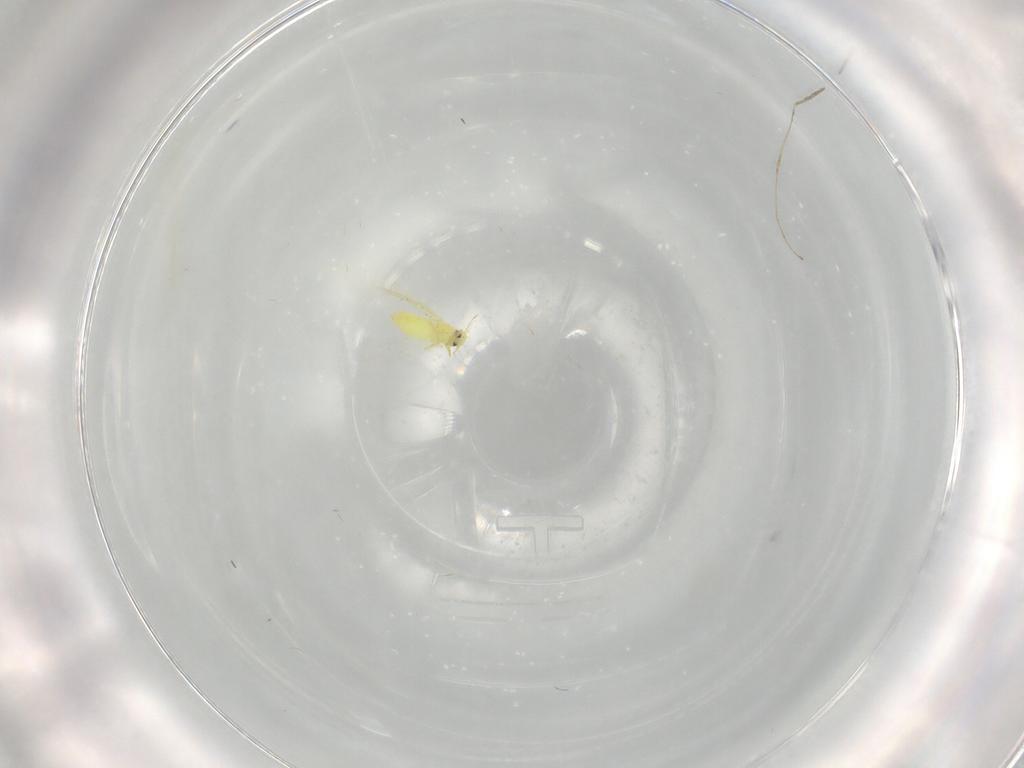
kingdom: Animalia
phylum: Arthropoda
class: Insecta
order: Hemiptera
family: Aleyrodidae
